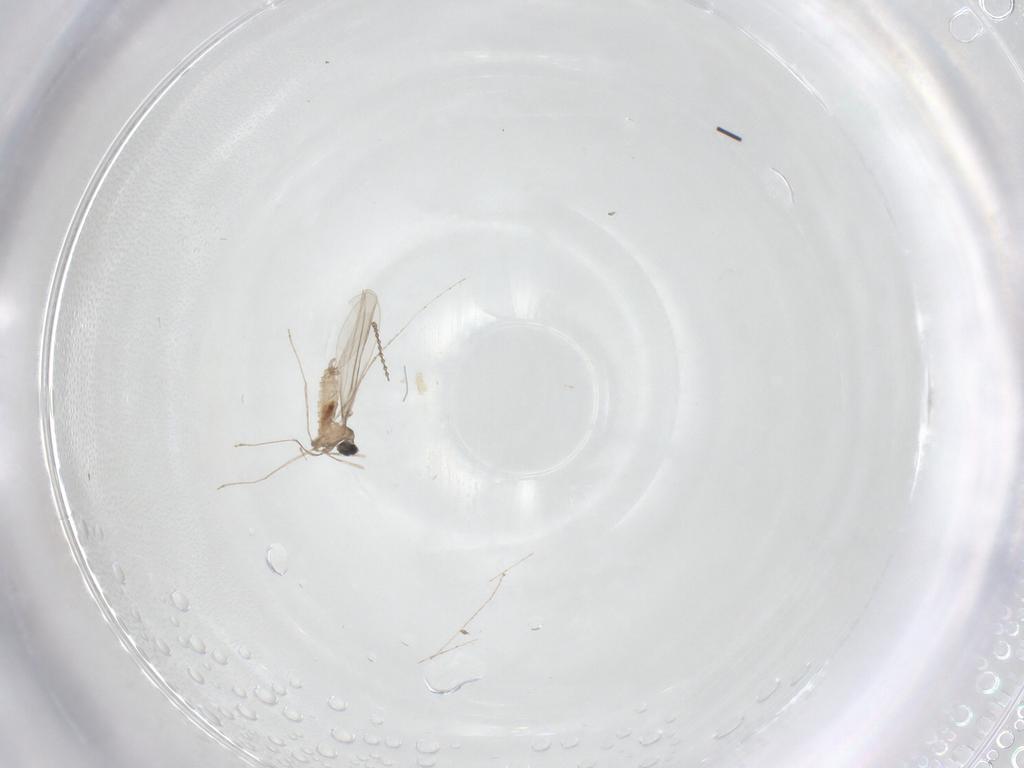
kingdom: Animalia
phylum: Arthropoda
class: Insecta
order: Diptera
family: Cecidomyiidae
